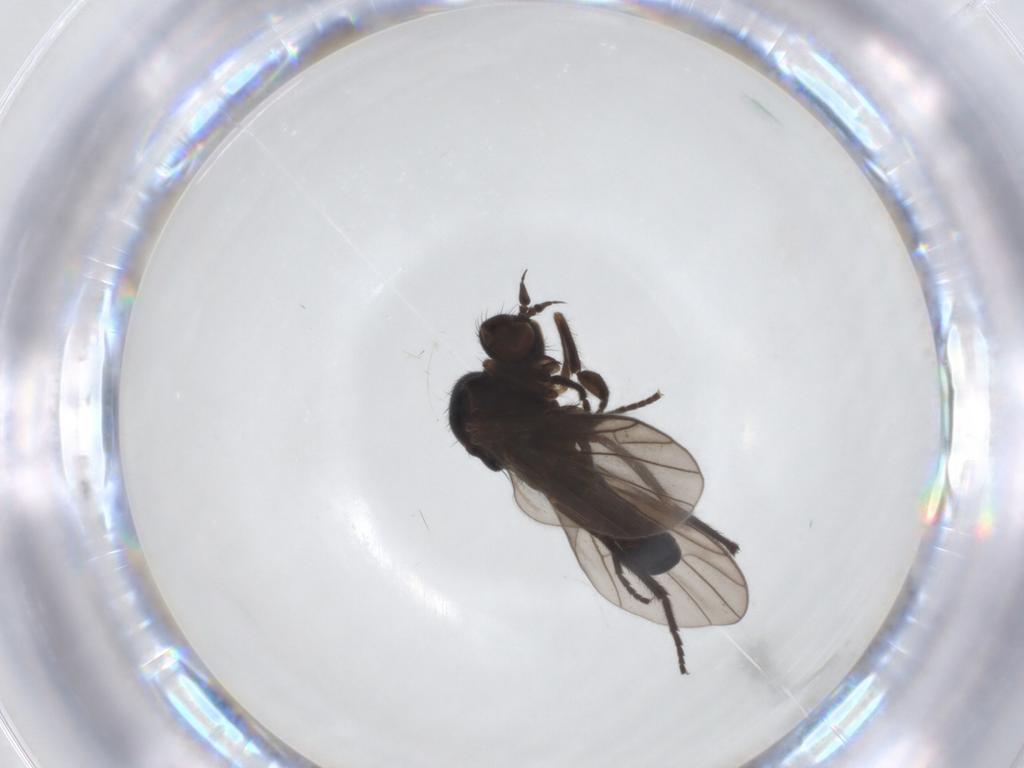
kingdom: Animalia
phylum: Arthropoda
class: Insecta
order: Diptera
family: Empididae
